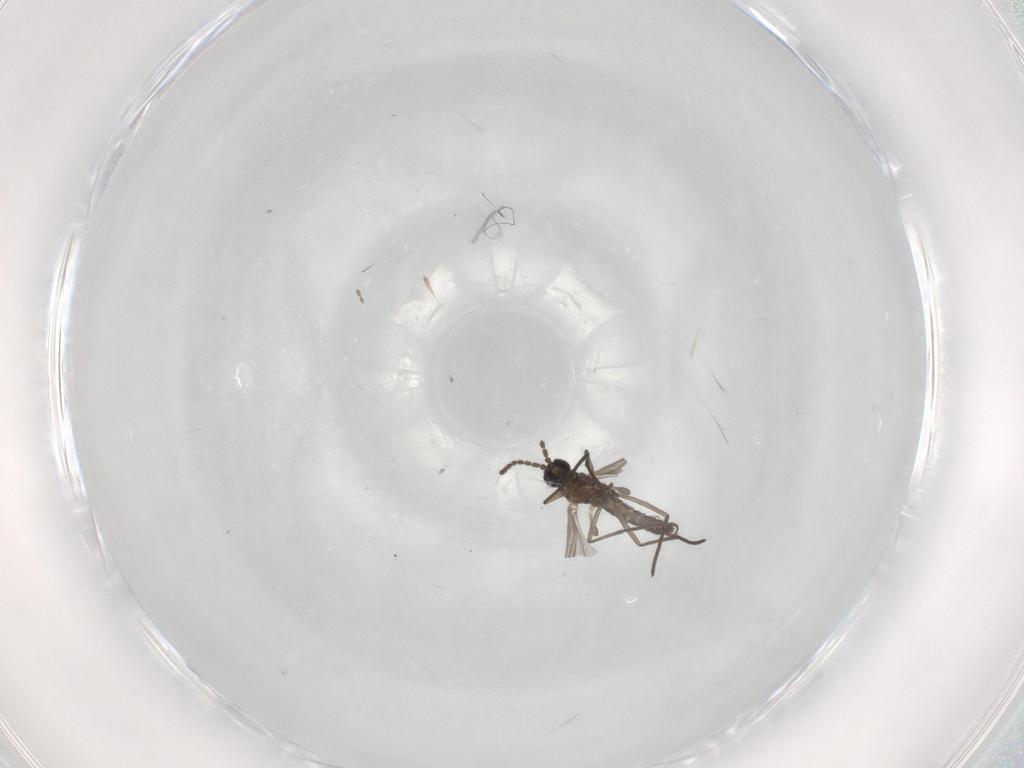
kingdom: Animalia
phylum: Arthropoda
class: Insecta
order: Diptera
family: Cecidomyiidae
